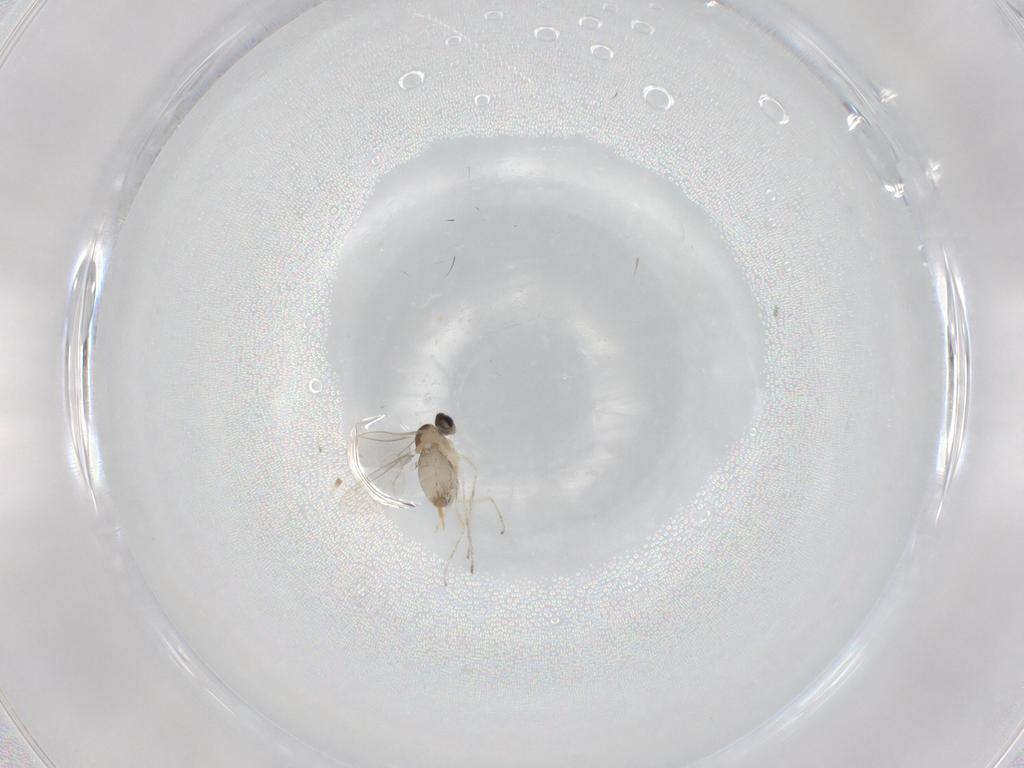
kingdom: Animalia
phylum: Arthropoda
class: Insecta
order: Diptera
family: Cecidomyiidae
